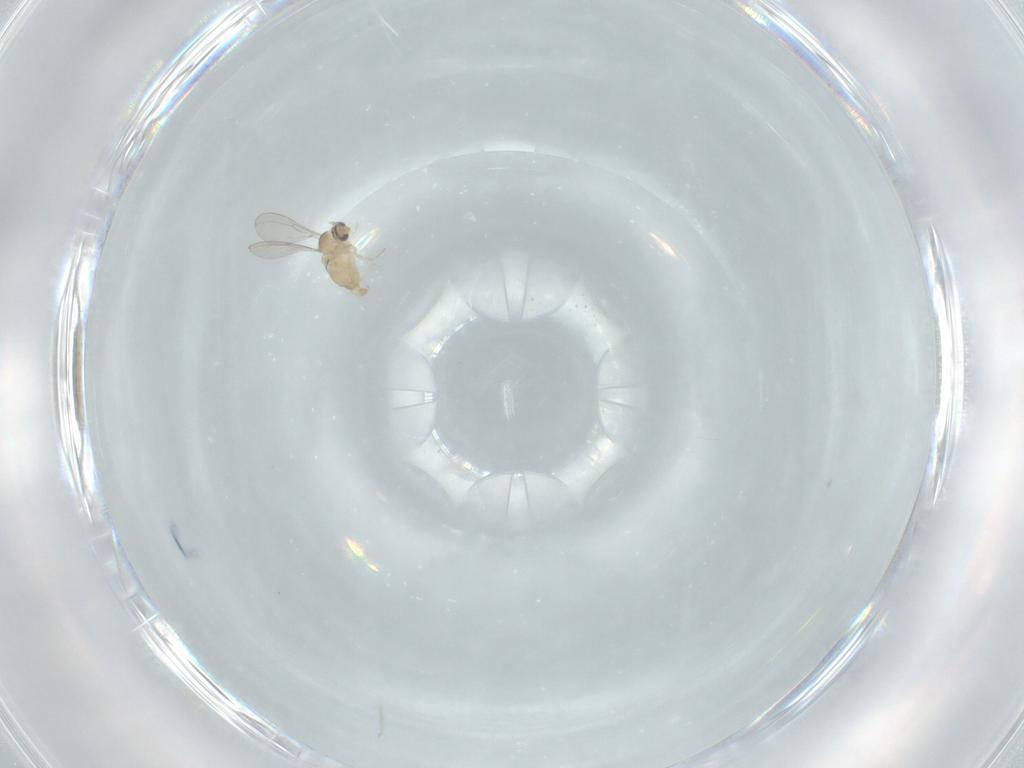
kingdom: Animalia
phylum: Arthropoda
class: Insecta
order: Diptera
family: Cecidomyiidae
